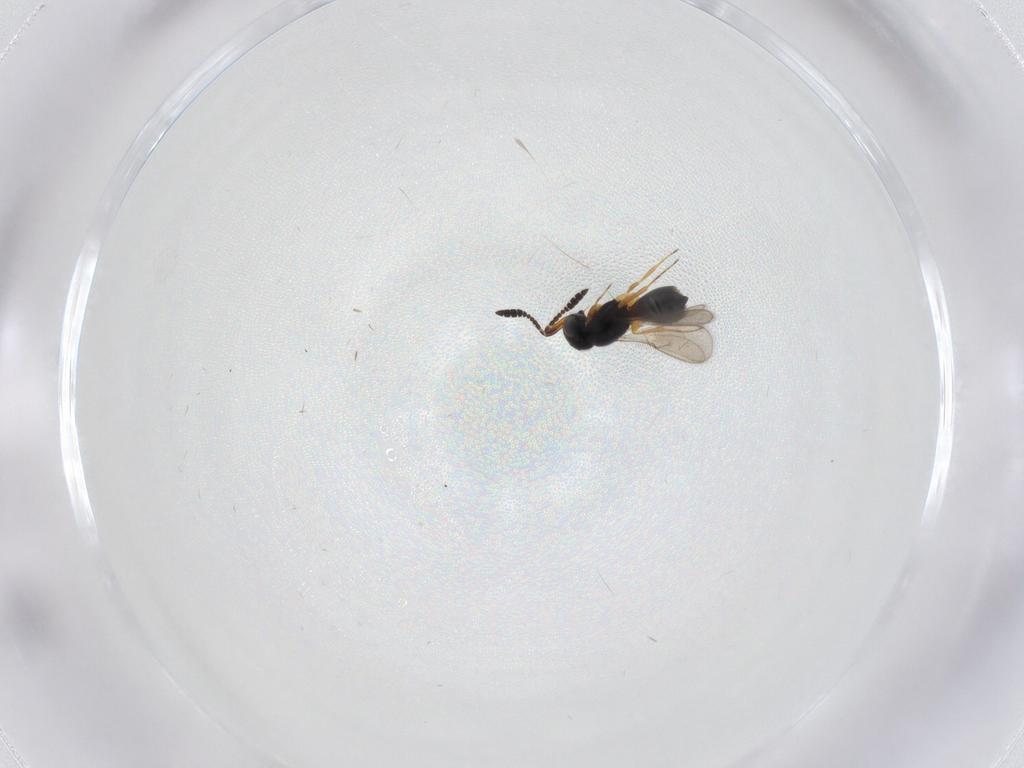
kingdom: Animalia
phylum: Arthropoda
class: Insecta
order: Hymenoptera
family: Scelionidae
